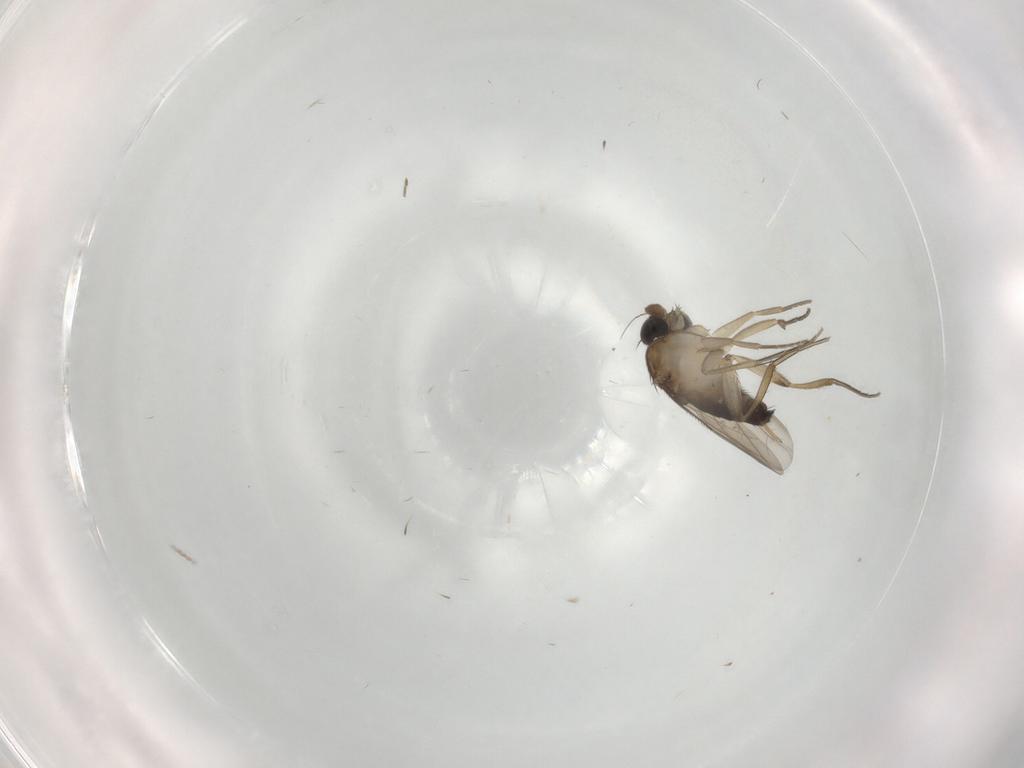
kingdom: Animalia
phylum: Arthropoda
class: Insecta
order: Diptera
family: Phoridae
